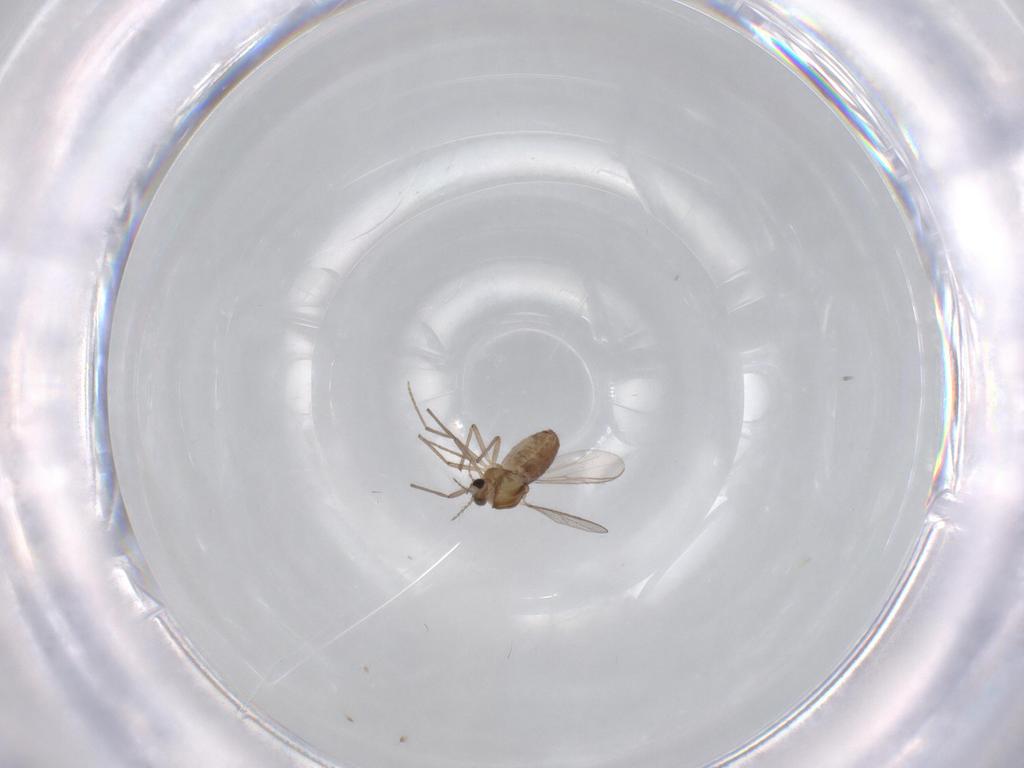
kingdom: Animalia
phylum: Arthropoda
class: Insecta
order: Diptera
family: Chironomidae
